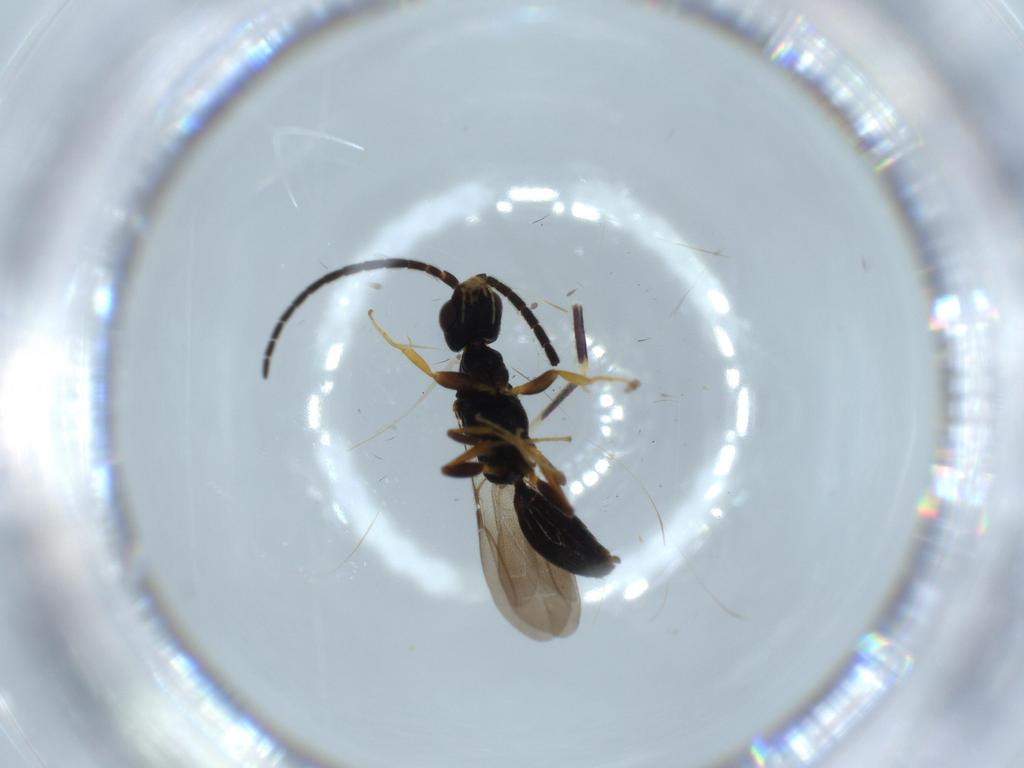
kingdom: Animalia
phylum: Arthropoda
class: Insecta
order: Hymenoptera
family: Bethylidae
